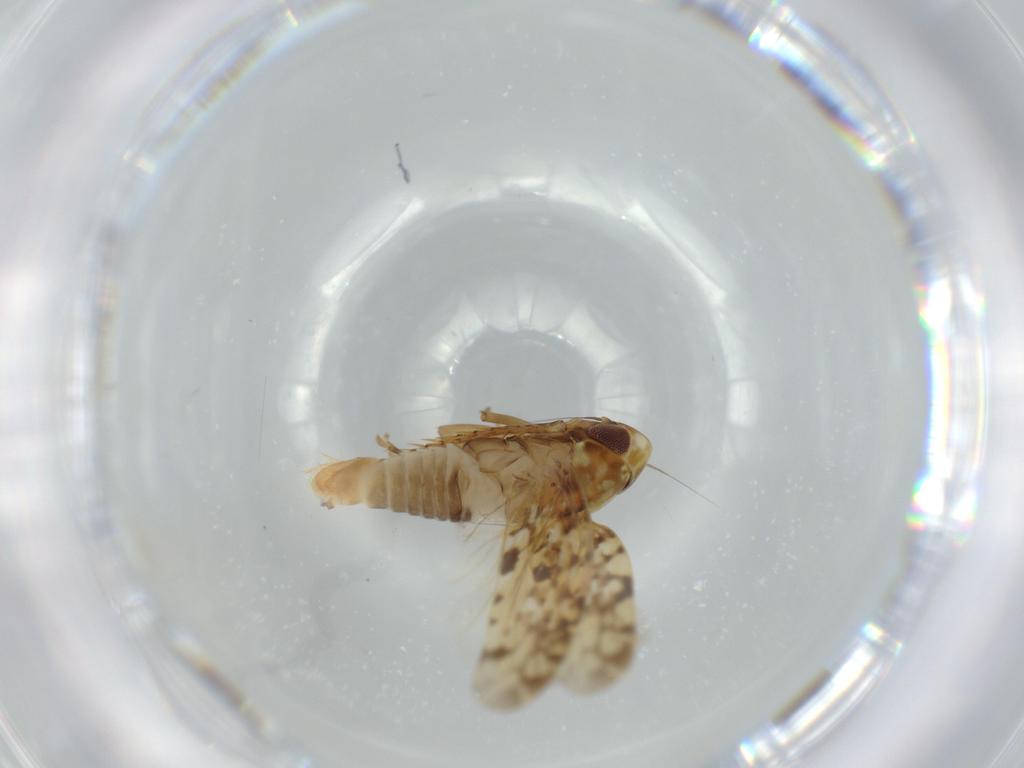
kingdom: Animalia
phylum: Arthropoda
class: Insecta
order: Hemiptera
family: Cicadellidae
